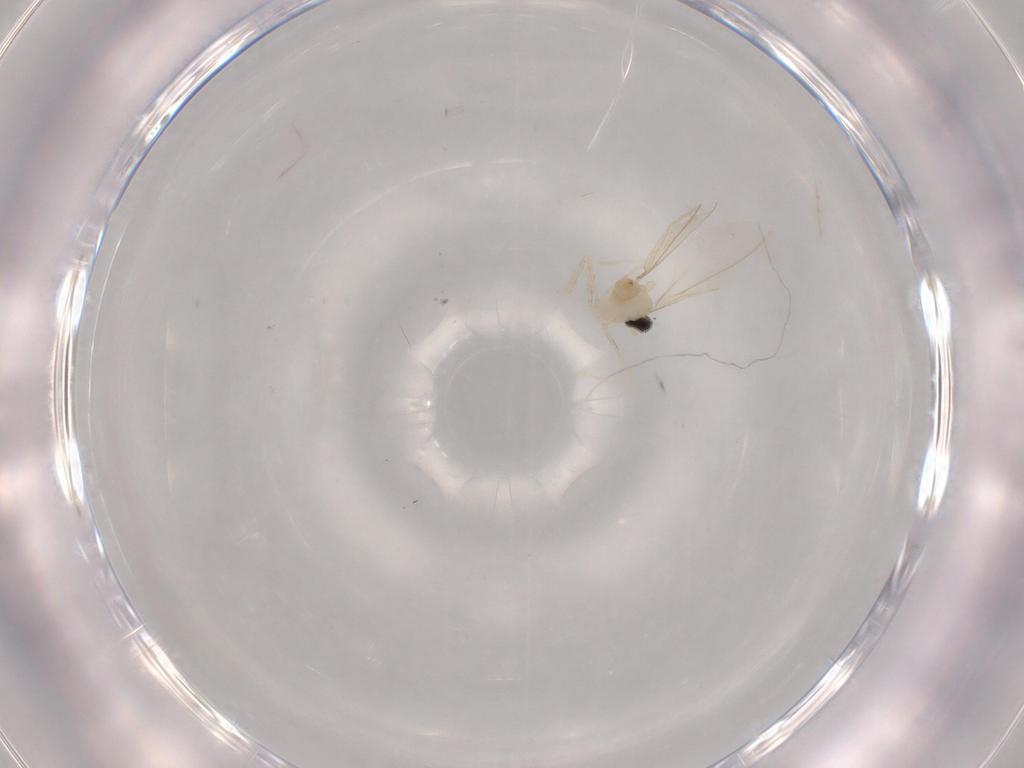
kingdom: Animalia
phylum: Arthropoda
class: Insecta
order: Diptera
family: Cecidomyiidae
